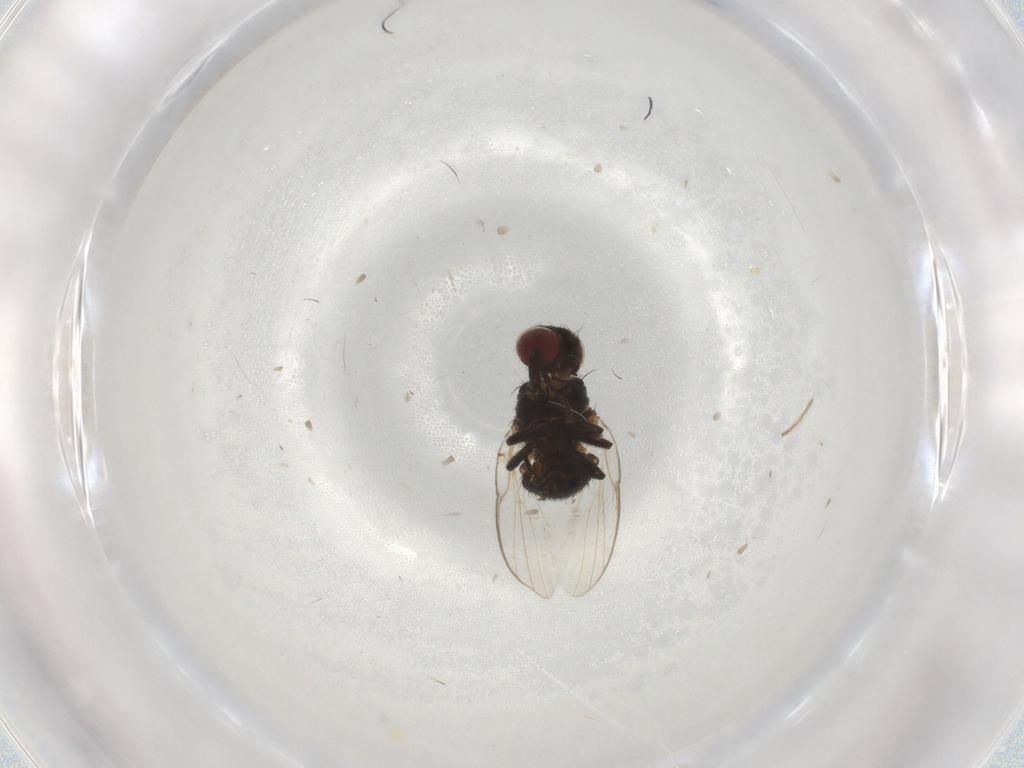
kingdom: Animalia
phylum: Arthropoda
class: Insecta
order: Diptera
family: Agromyzidae
